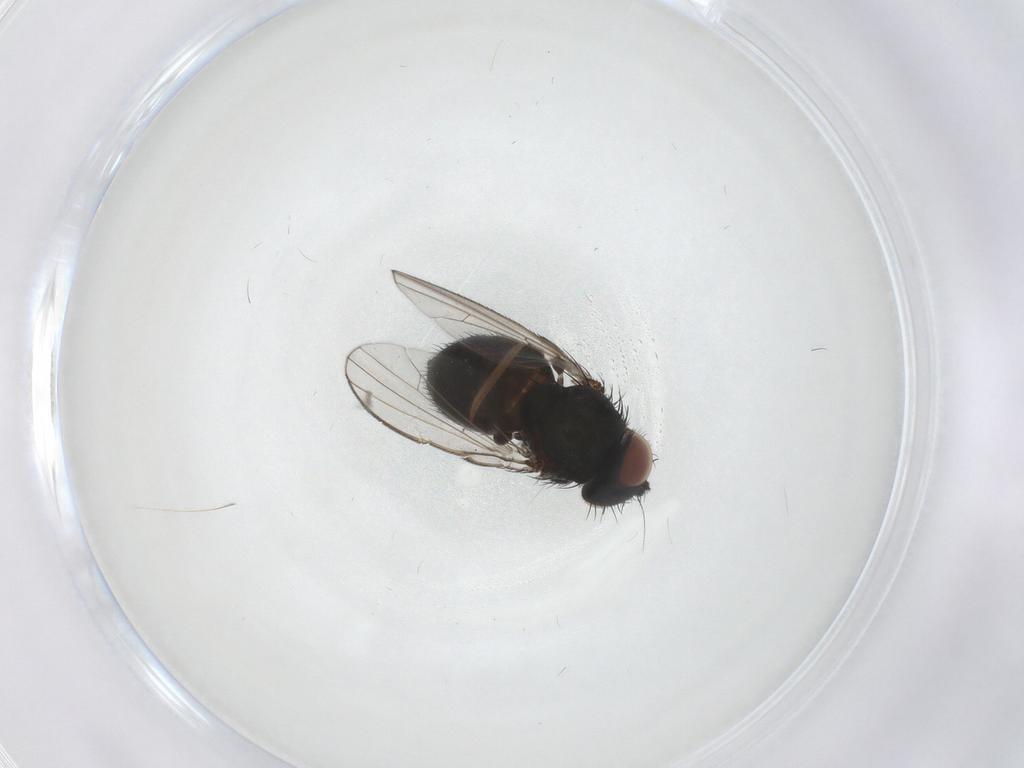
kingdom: Animalia
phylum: Arthropoda
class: Insecta
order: Diptera
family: Milichiidae
